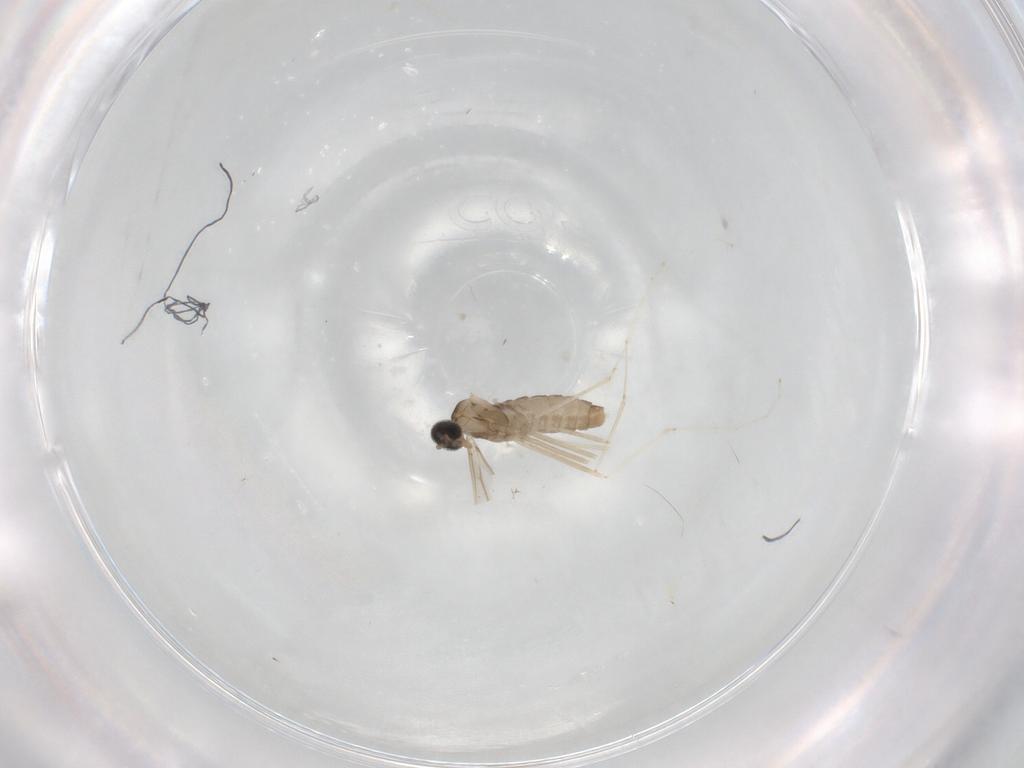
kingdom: Animalia
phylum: Arthropoda
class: Insecta
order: Diptera
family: Cecidomyiidae
